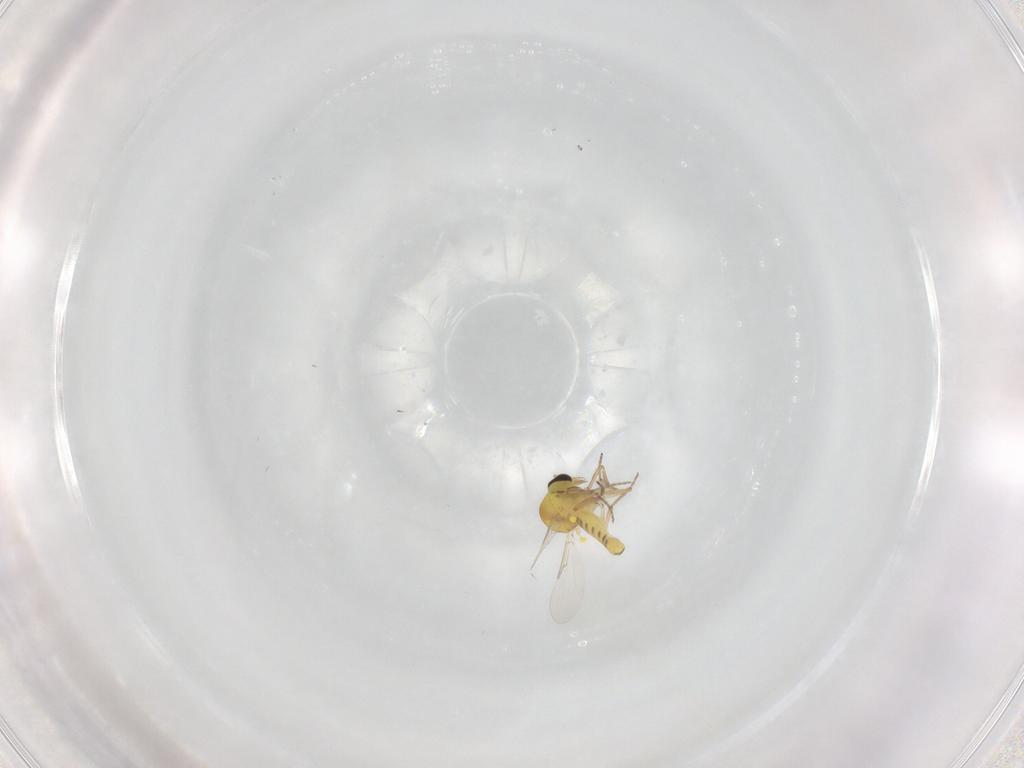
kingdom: Animalia
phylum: Arthropoda
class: Insecta
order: Diptera
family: Ceratopogonidae
